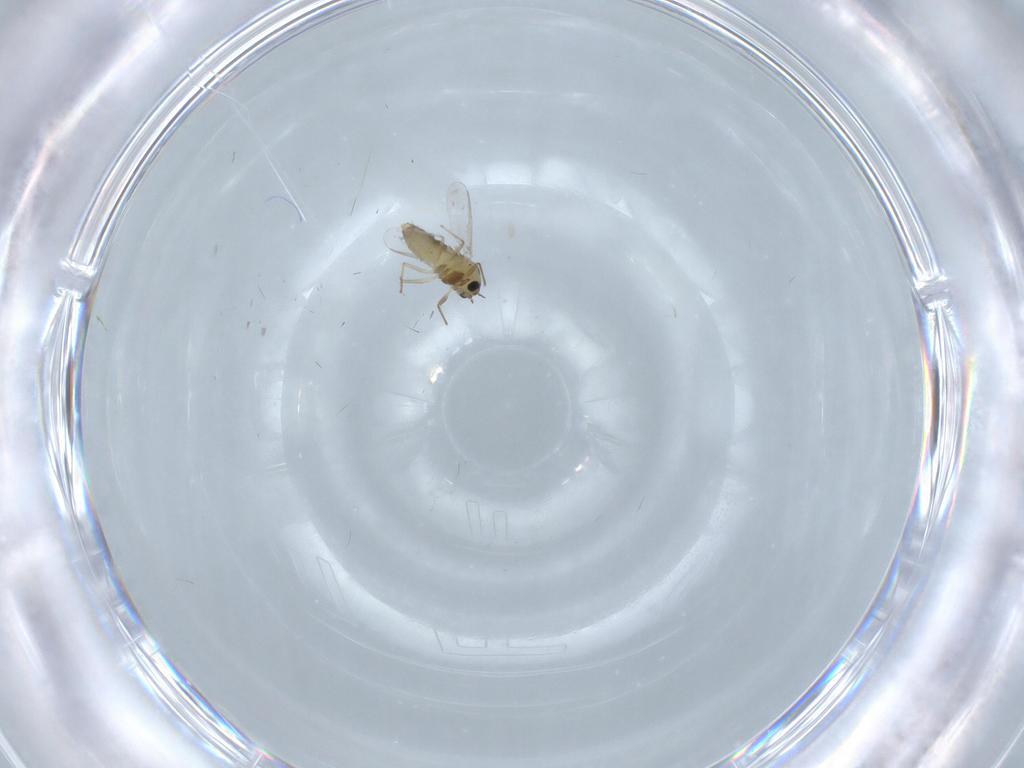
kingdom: Animalia
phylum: Arthropoda
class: Insecta
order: Diptera
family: Chironomidae
